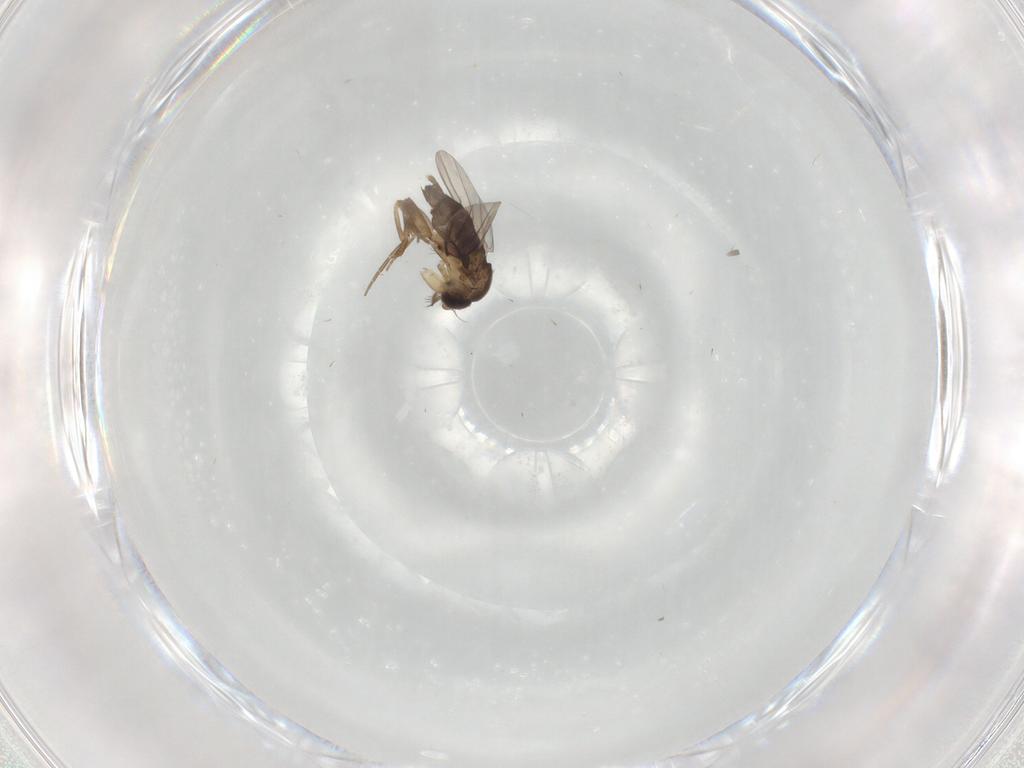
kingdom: Animalia
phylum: Arthropoda
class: Insecta
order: Diptera
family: Phoridae
